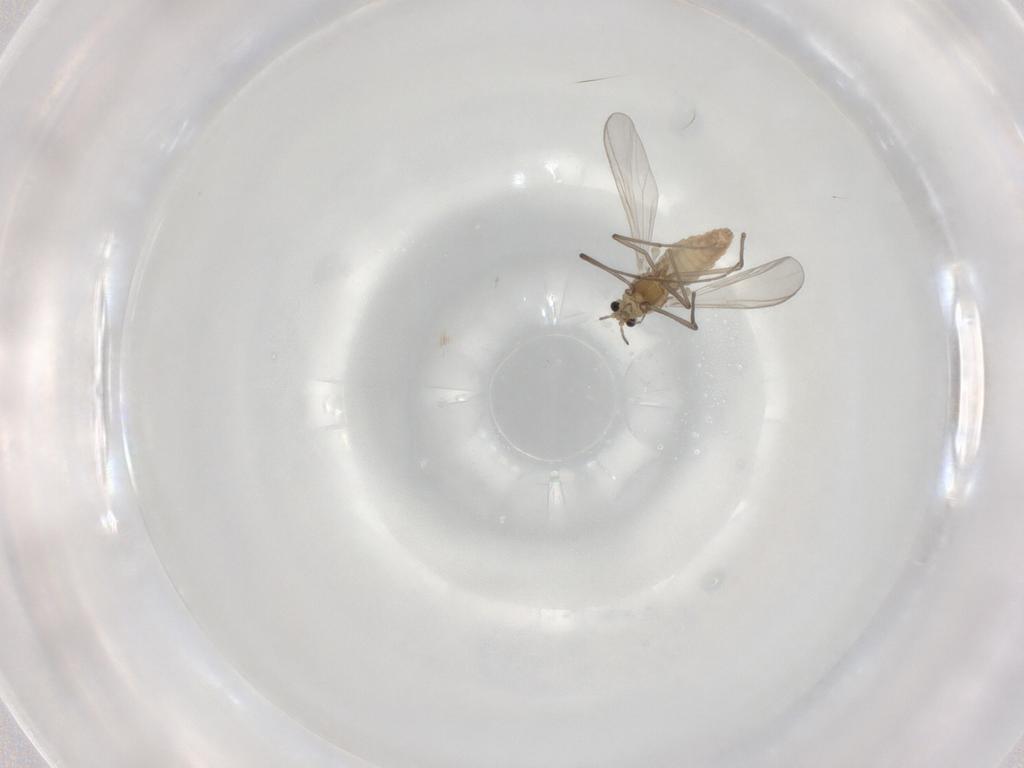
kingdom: Animalia
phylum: Arthropoda
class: Insecta
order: Diptera
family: Chironomidae
